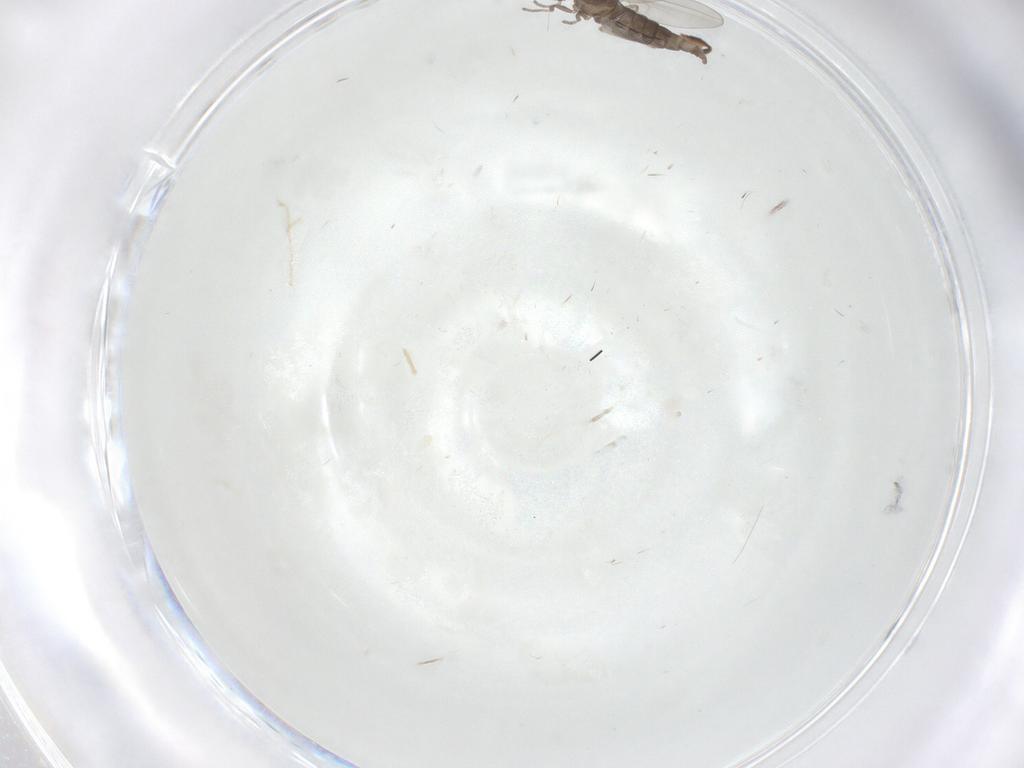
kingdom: Animalia
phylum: Arthropoda
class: Insecta
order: Diptera
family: Cecidomyiidae
